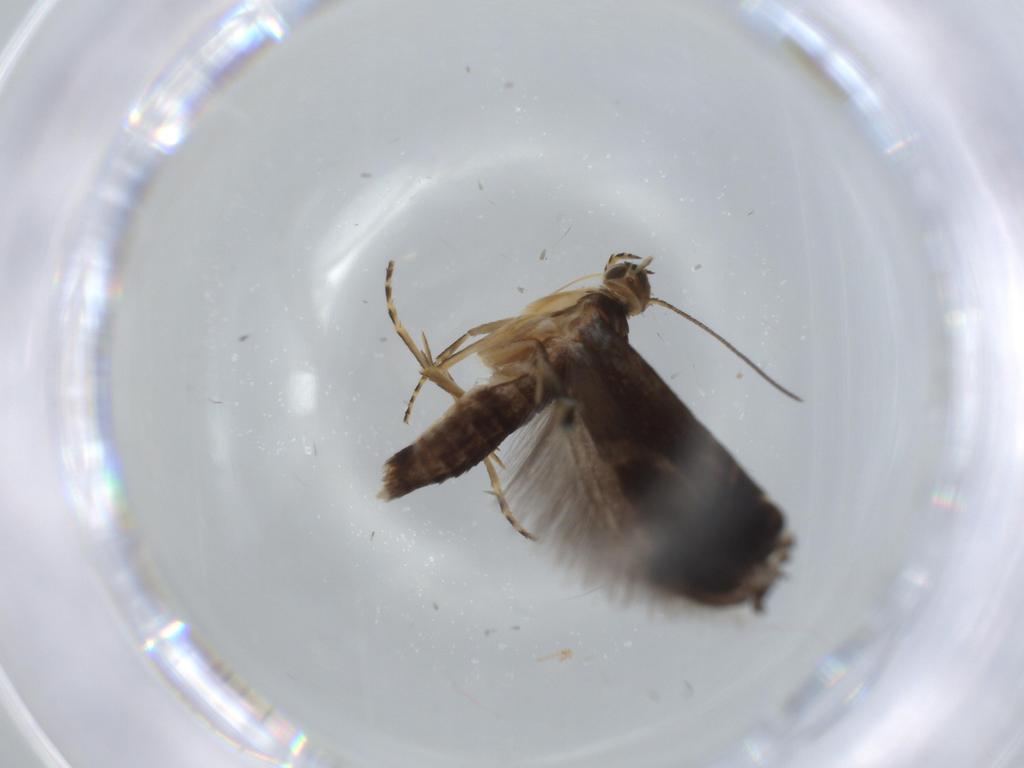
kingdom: Animalia
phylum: Arthropoda
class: Insecta
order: Lepidoptera
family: Glyphipterigidae
